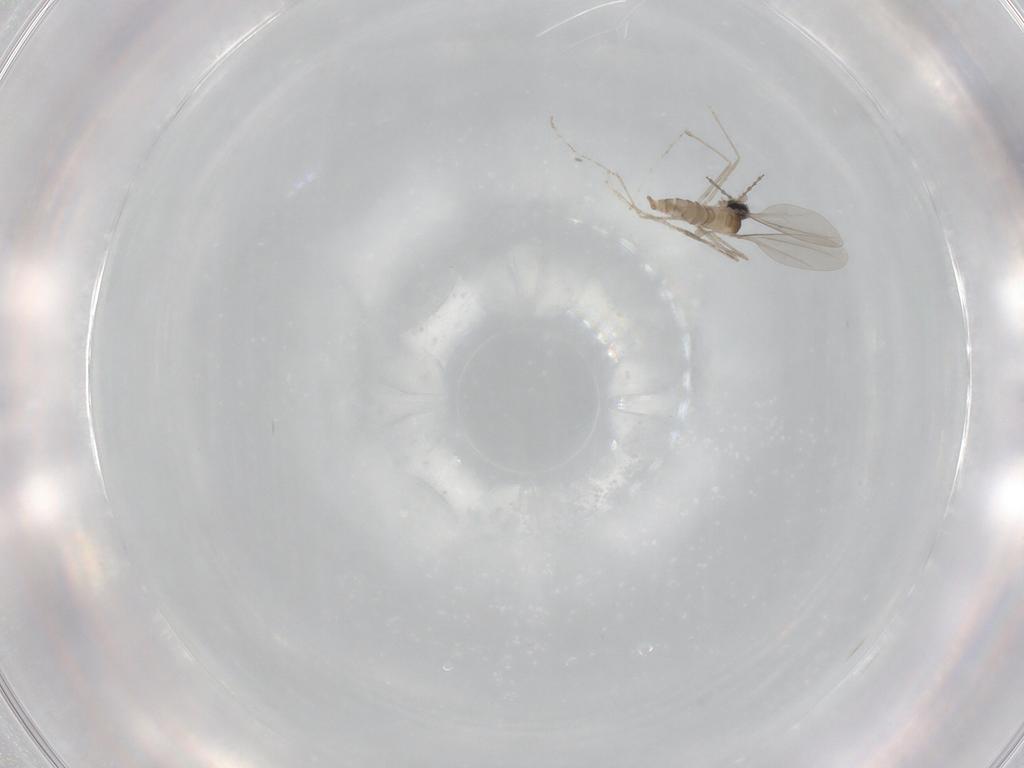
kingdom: Animalia
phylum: Arthropoda
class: Insecta
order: Diptera
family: Cecidomyiidae
